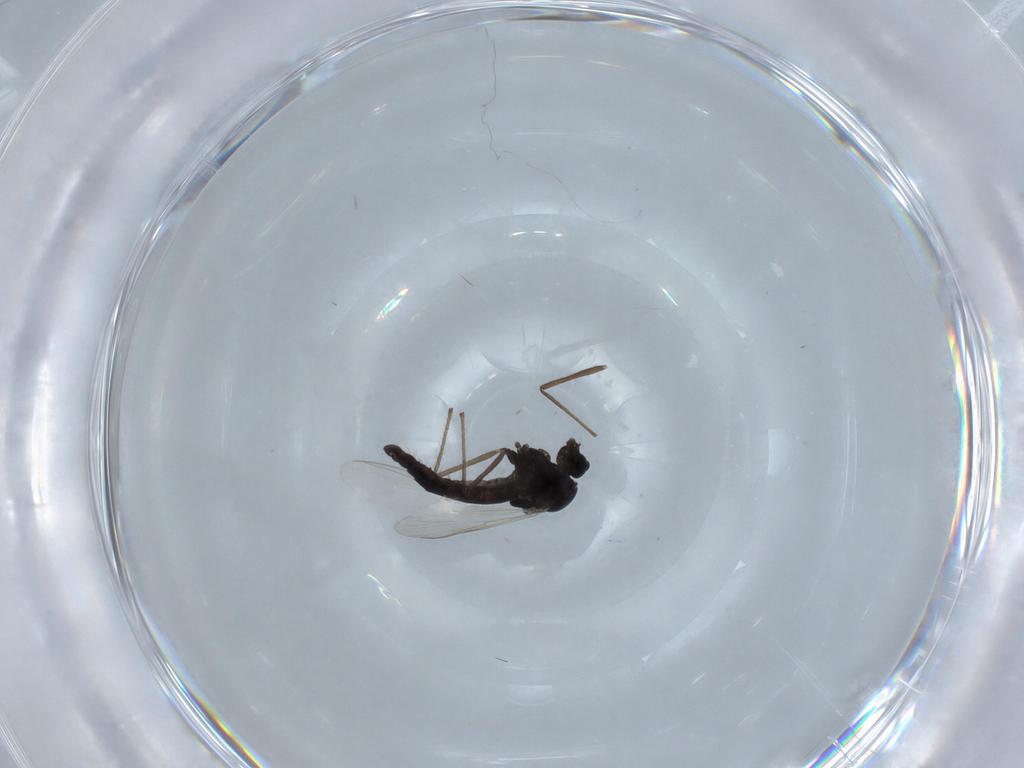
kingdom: Animalia
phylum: Arthropoda
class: Insecta
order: Diptera
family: Chironomidae
